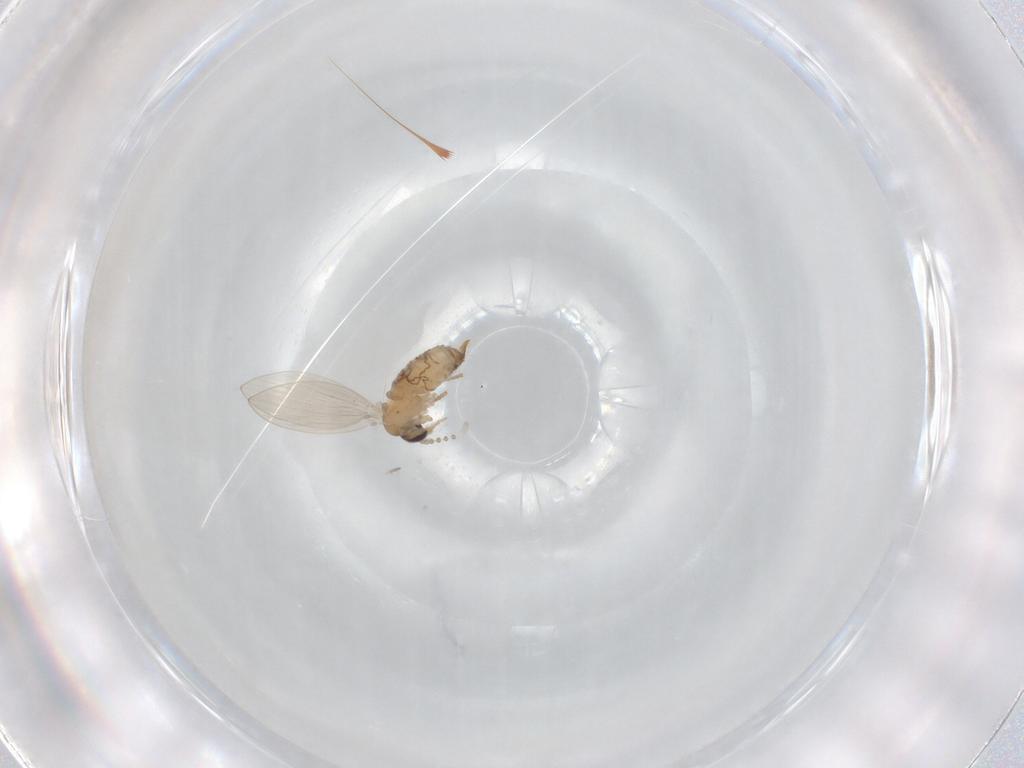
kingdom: Animalia
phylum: Arthropoda
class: Insecta
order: Diptera
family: Psychodidae
